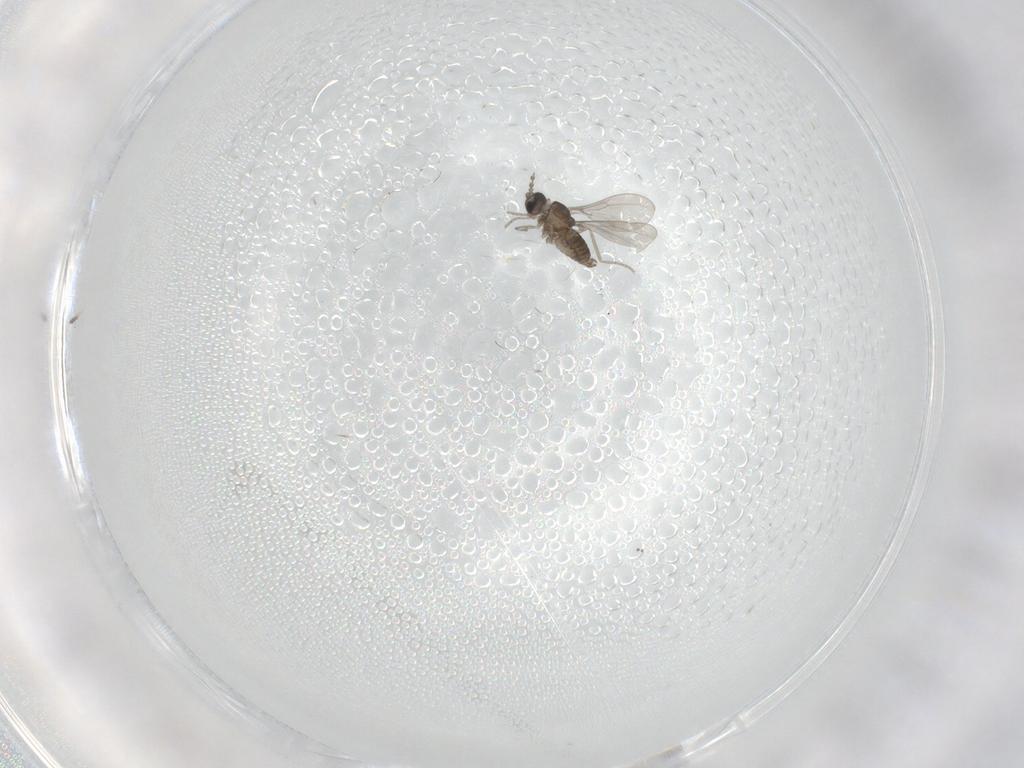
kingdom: Animalia
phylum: Arthropoda
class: Insecta
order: Diptera
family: Cecidomyiidae
